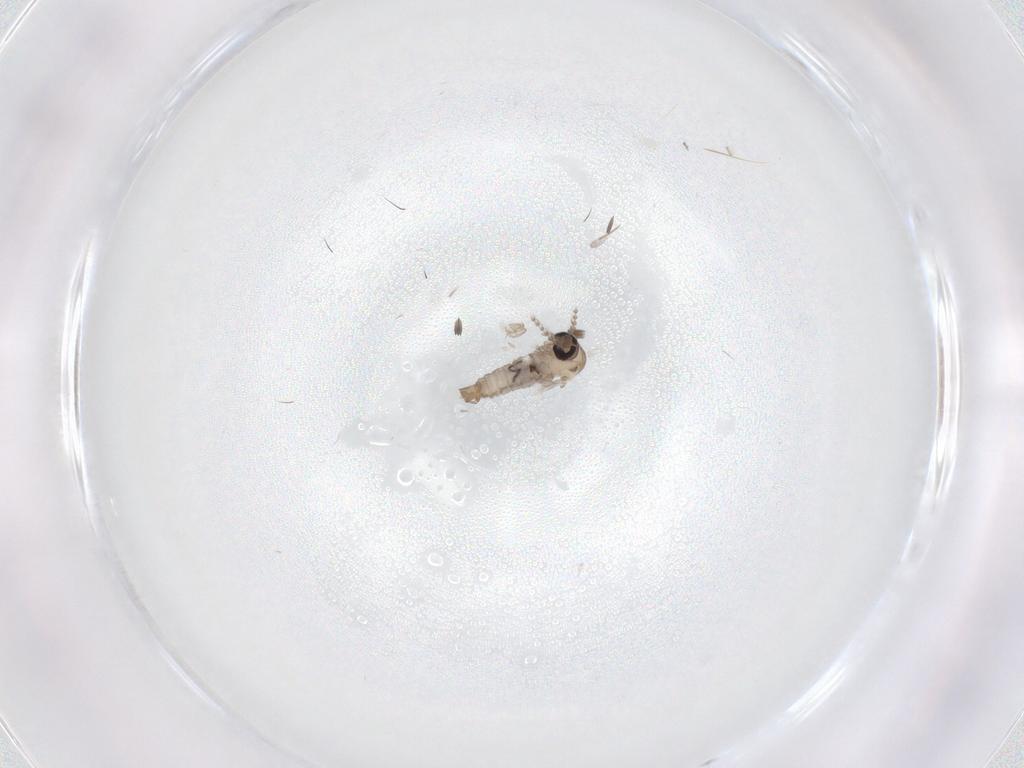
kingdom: Animalia
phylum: Arthropoda
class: Insecta
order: Diptera
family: Psychodidae
